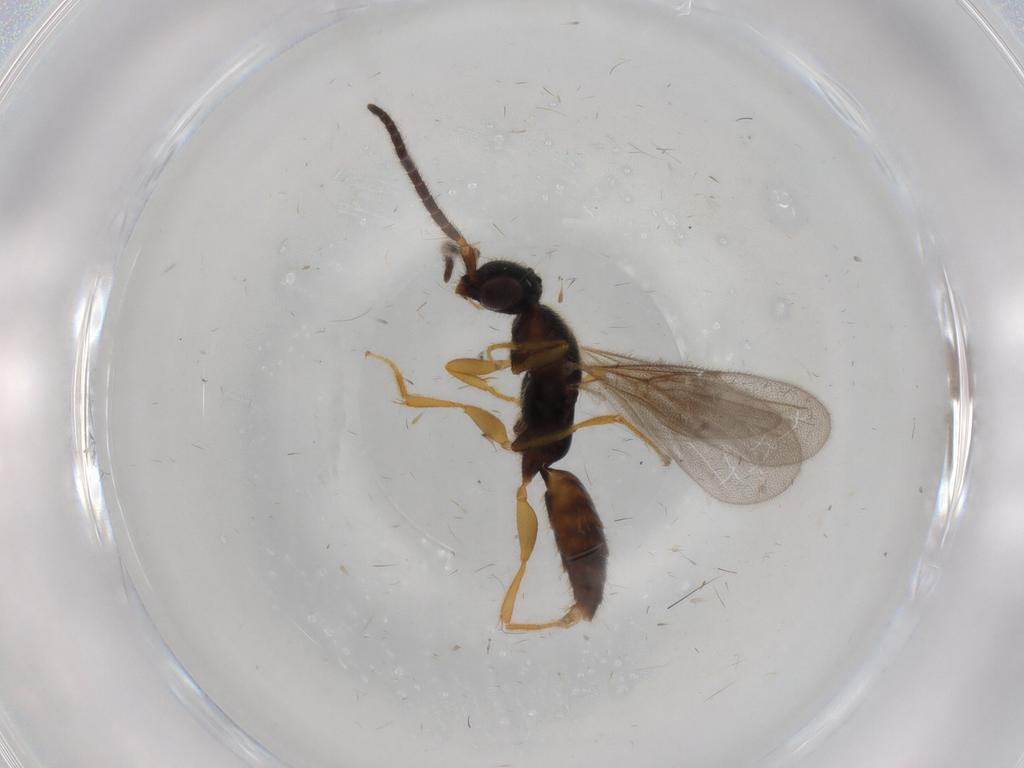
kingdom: Animalia
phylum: Arthropoda
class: Insecta
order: Hymenoptera
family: Bethylidae
